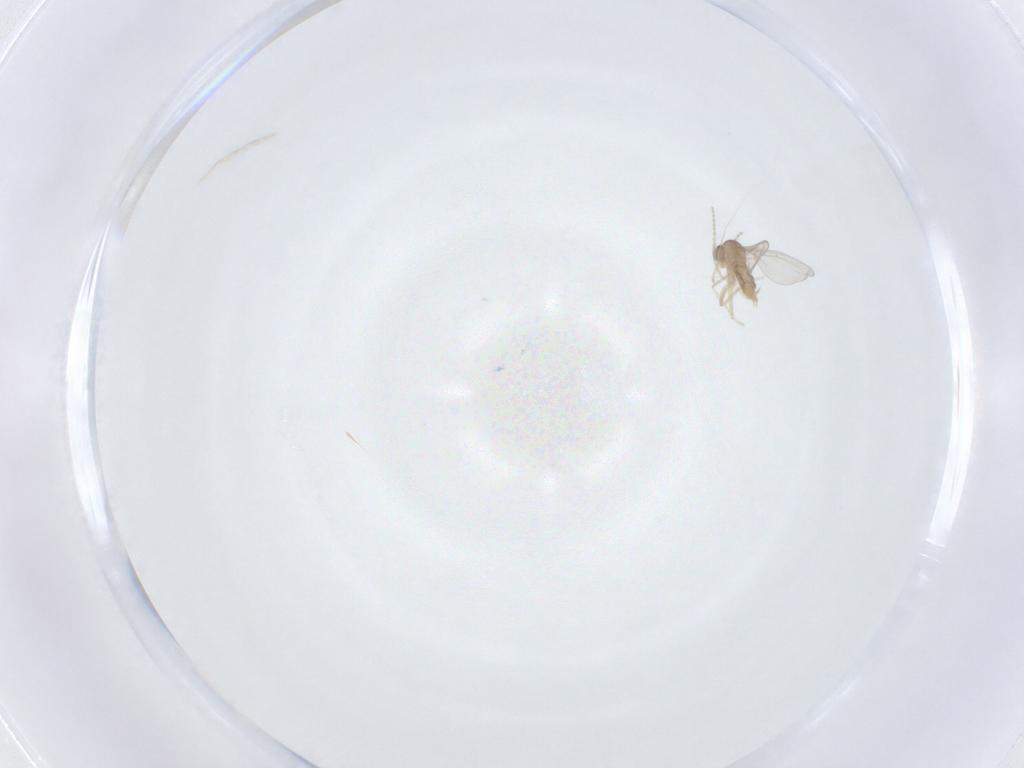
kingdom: Animalia
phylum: Arthropoda
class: Insecta
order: Diptera
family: Cecidomyiidae
